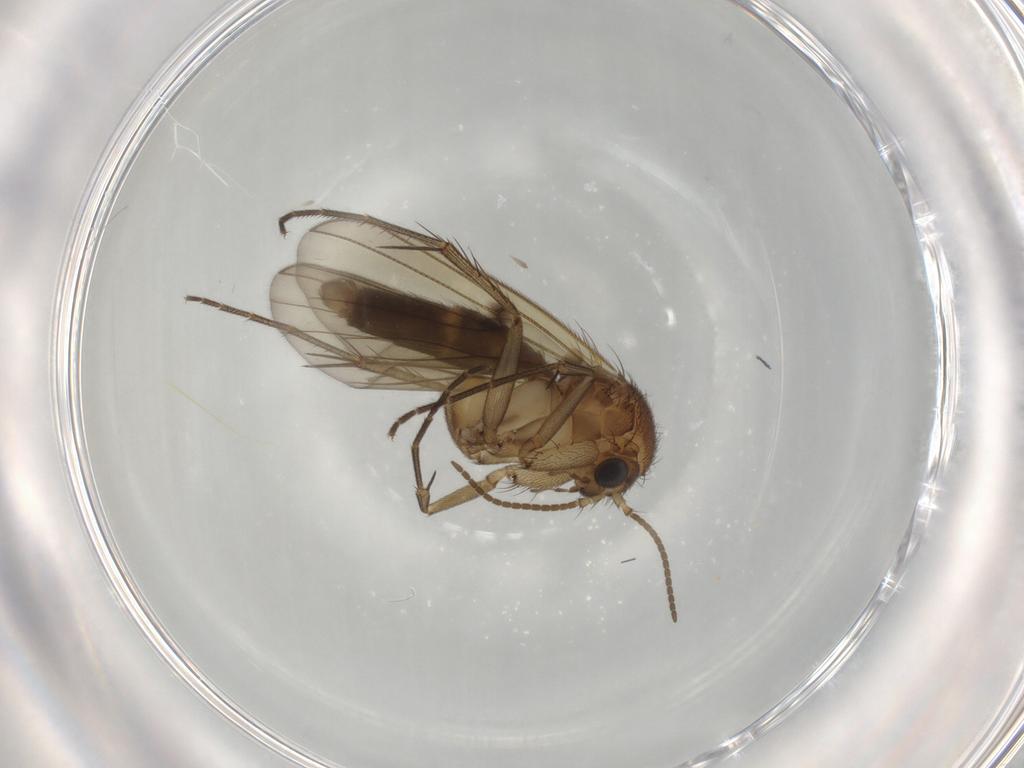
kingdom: Animalia
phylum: Arthropoda
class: Insecta
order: Diptera
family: Mycetophilidae
